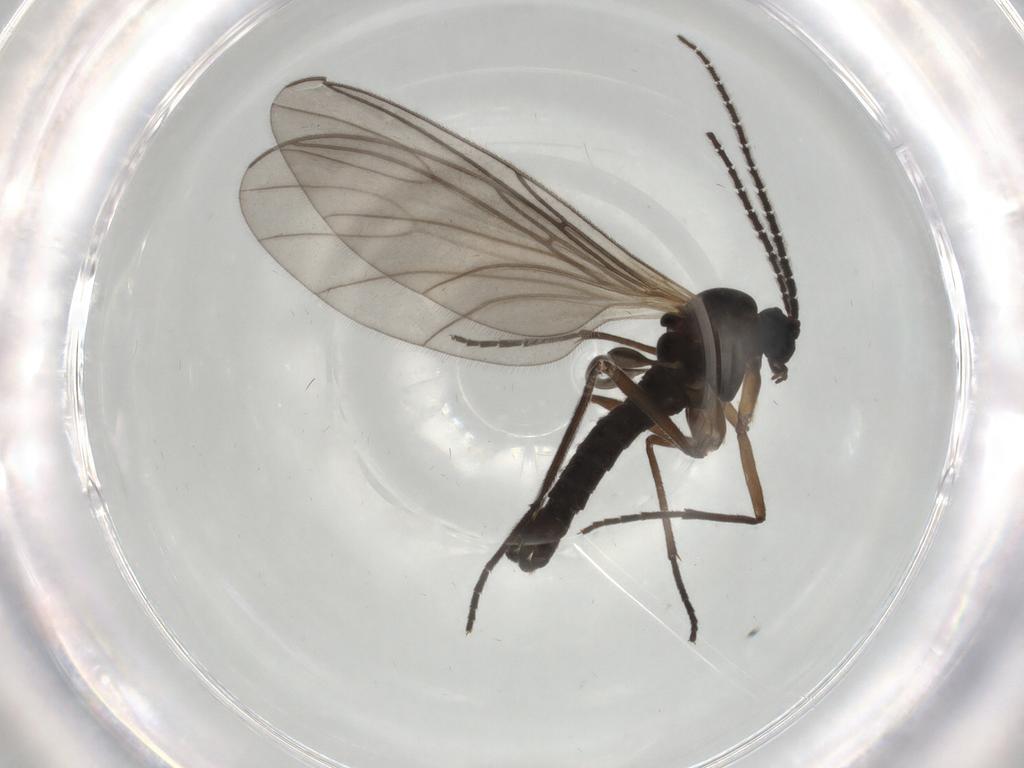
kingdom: Animalia
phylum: Arthropoda
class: Insecta
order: Diptera
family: Sciaridae
